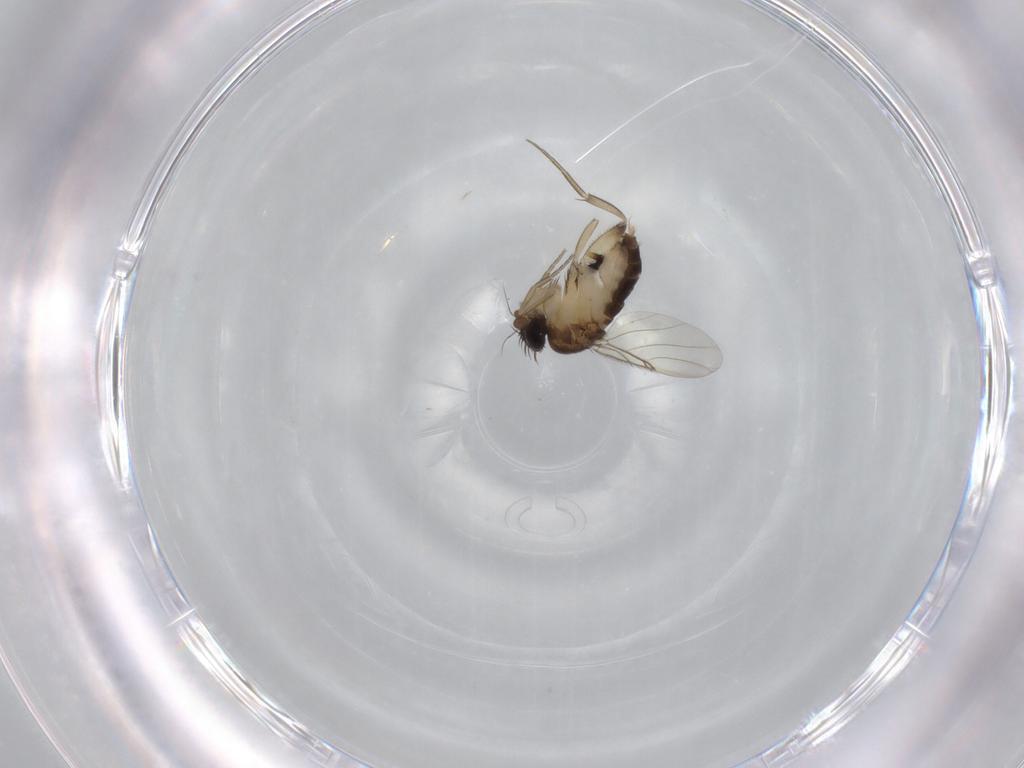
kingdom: Animalia
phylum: Arthropoda
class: Insecta
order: Diptera
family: Phoridae
